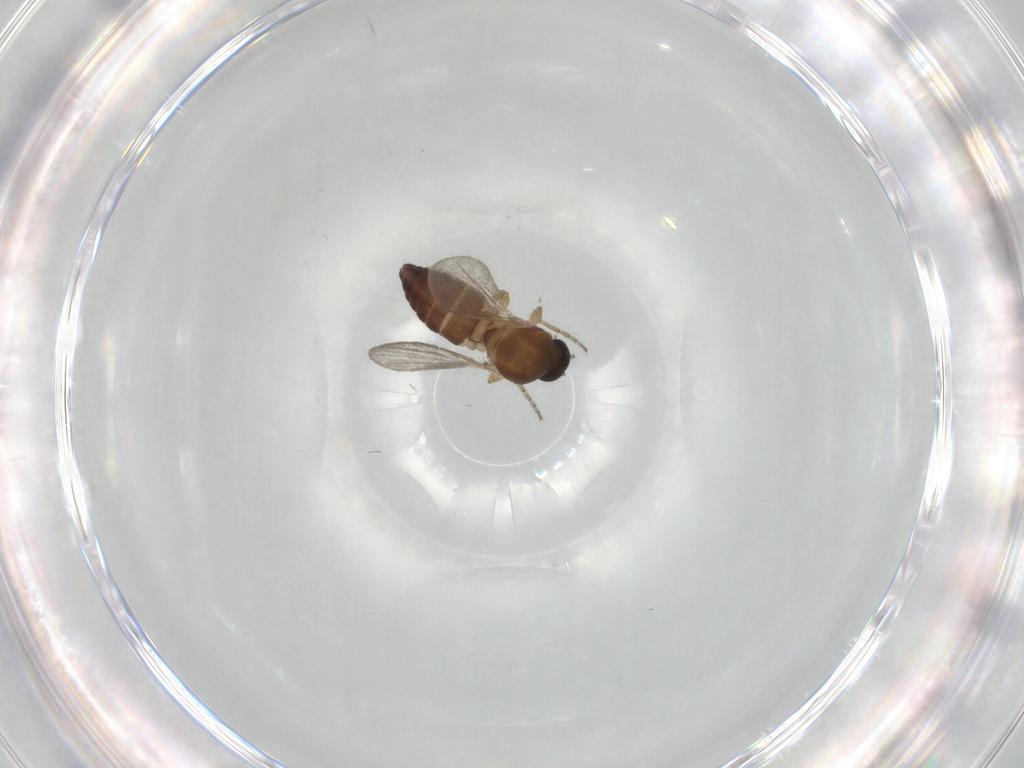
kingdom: Animalia
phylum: Arthropoda
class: Insecta
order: Diptera
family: Ceratopogonidae
